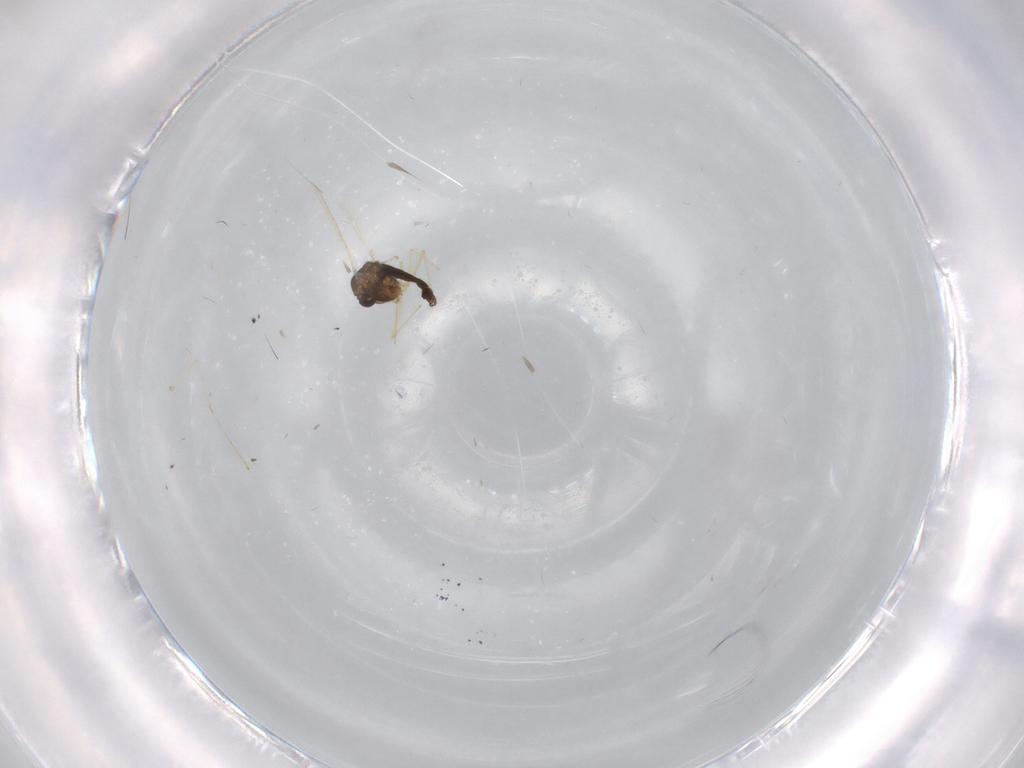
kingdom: Animalia
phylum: Arthropoda
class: Insecta
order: Diptera
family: Chironomidae
